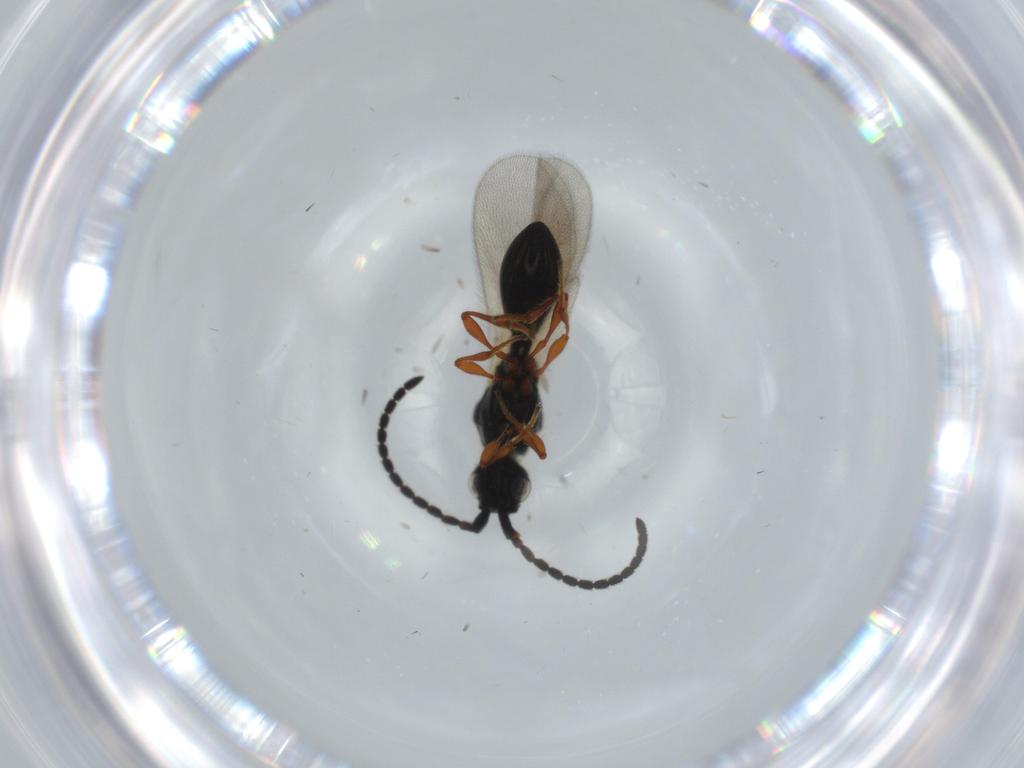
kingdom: Animalia
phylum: Arthropoda
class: Insecta
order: Hymenoptera
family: Diapriidae
